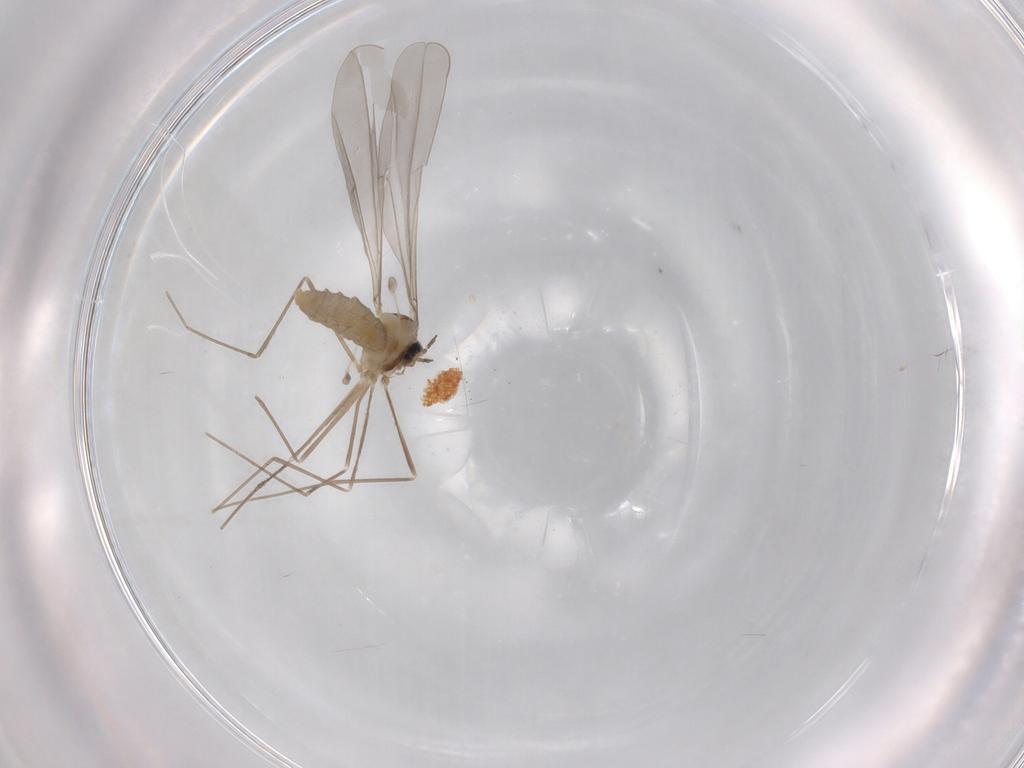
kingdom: Animalia
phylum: Arthropoda
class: Insecta
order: Diptera
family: Cecidomyiidae
